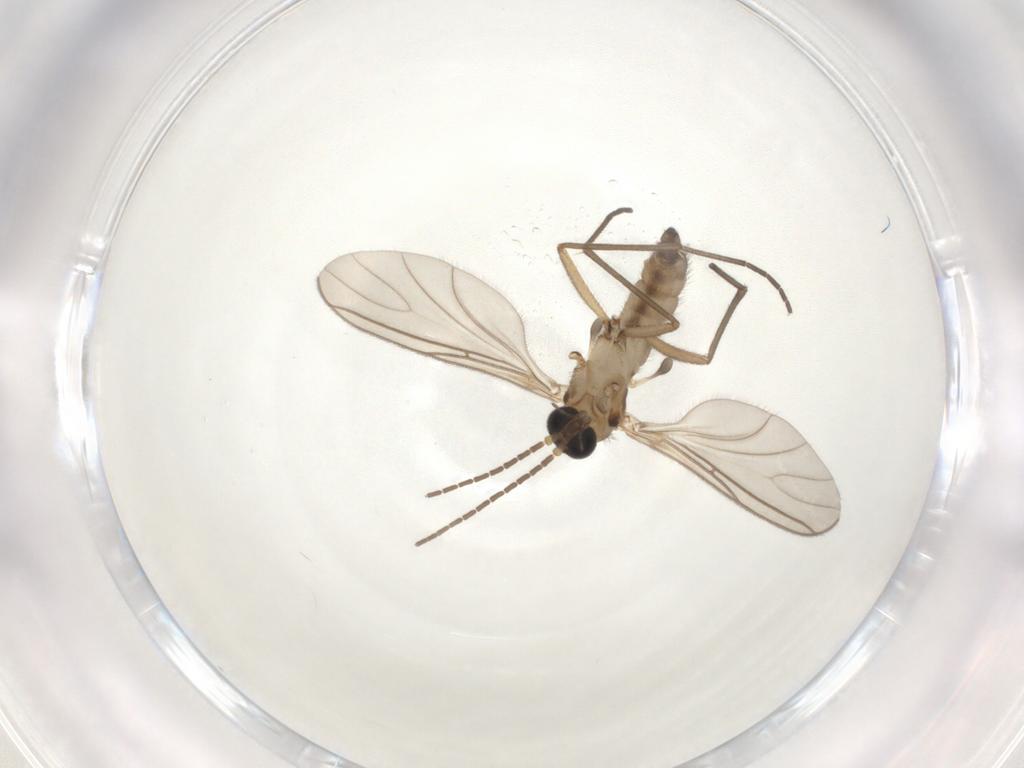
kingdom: Animalia
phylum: Arthropoda
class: Insecta
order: Diptera
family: Sciaridae
